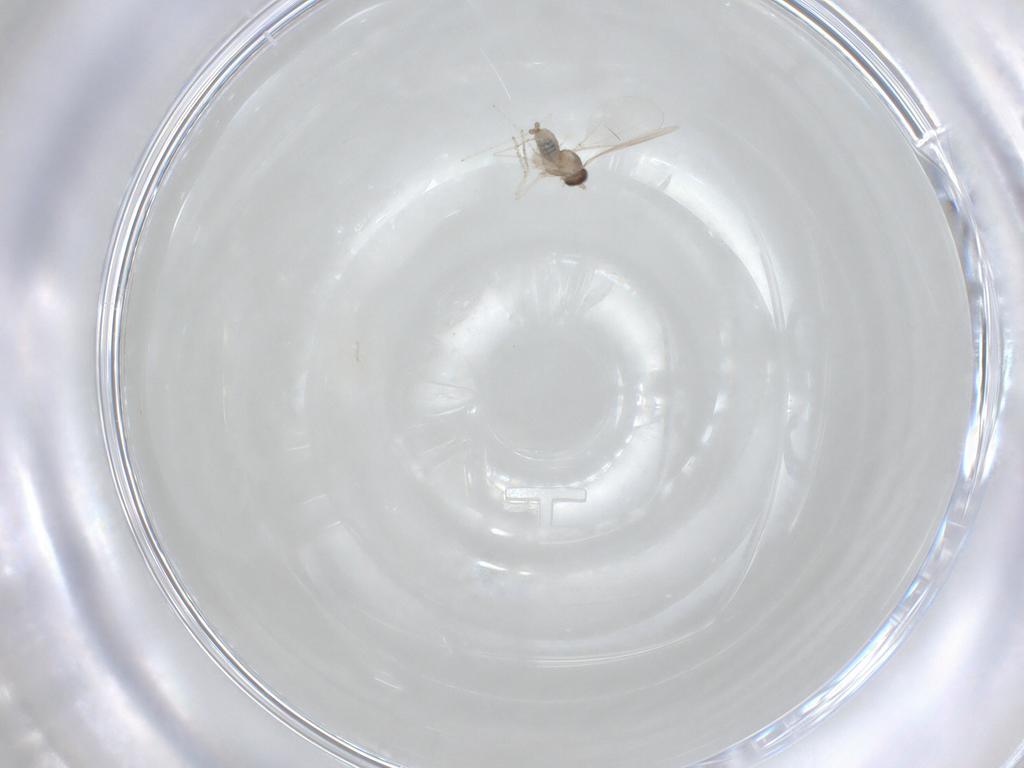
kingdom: Animalia
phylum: Arthropoda
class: Insecta
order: Diptera
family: Cecidomyiidae
